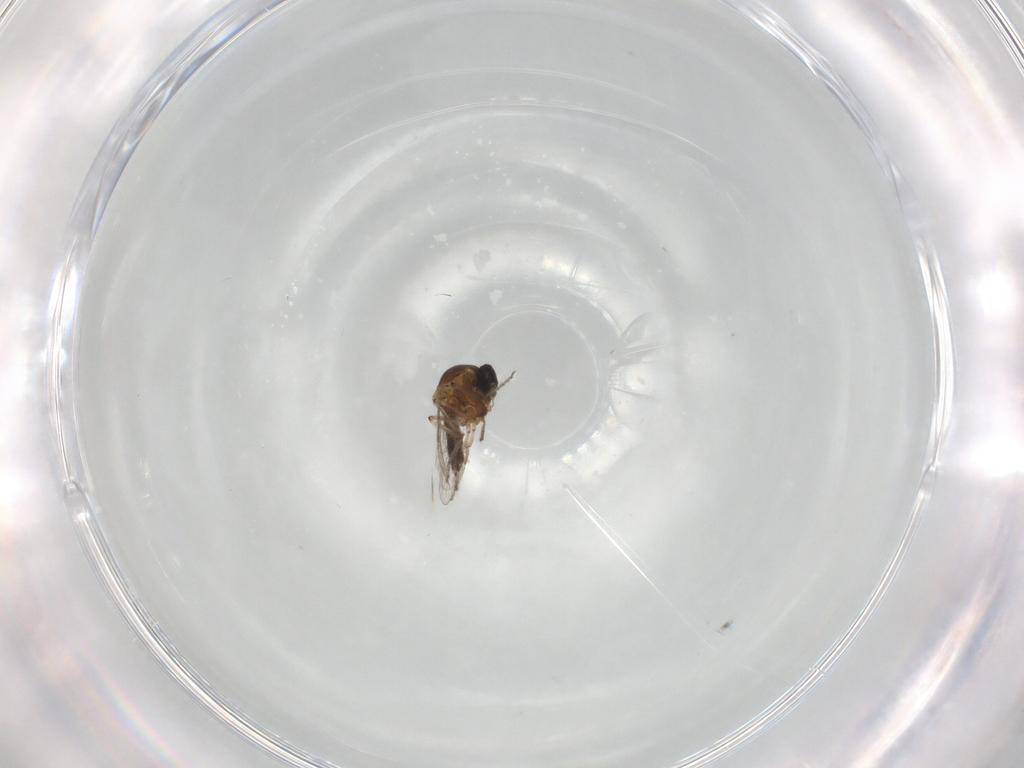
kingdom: Animalia
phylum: Arthropoda
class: Insecta
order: Diptera
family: Ceratopogonidae
